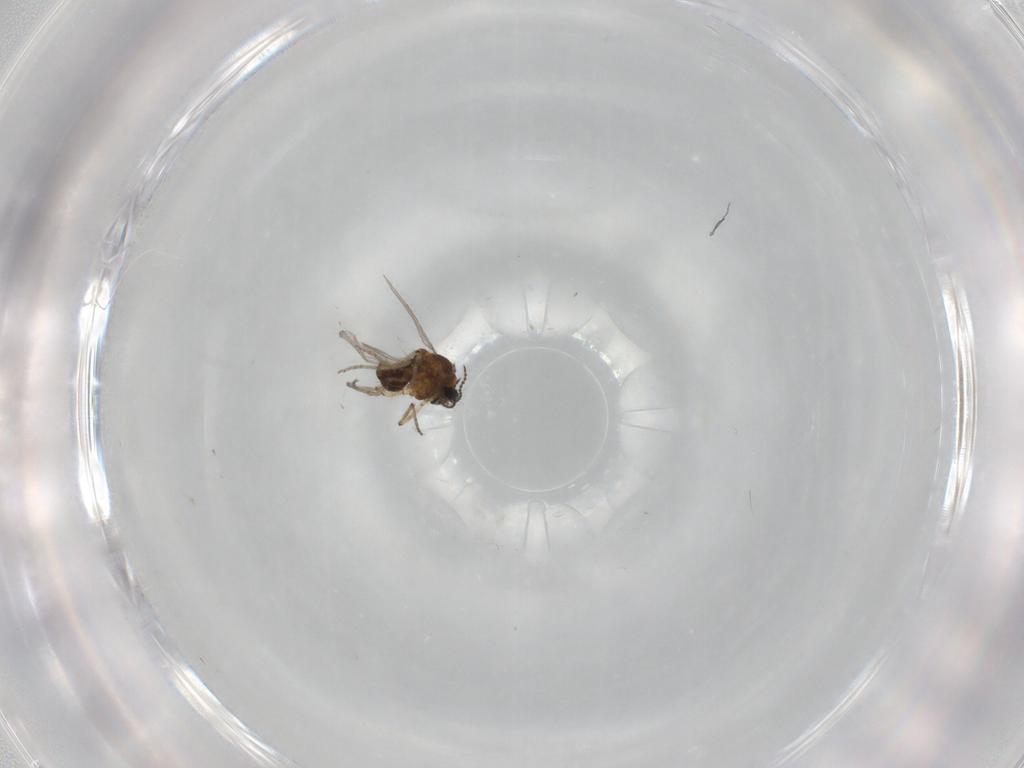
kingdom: Animalia
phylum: Arthropoda
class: Insecta
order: Diptera
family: Ceratopogonidae
